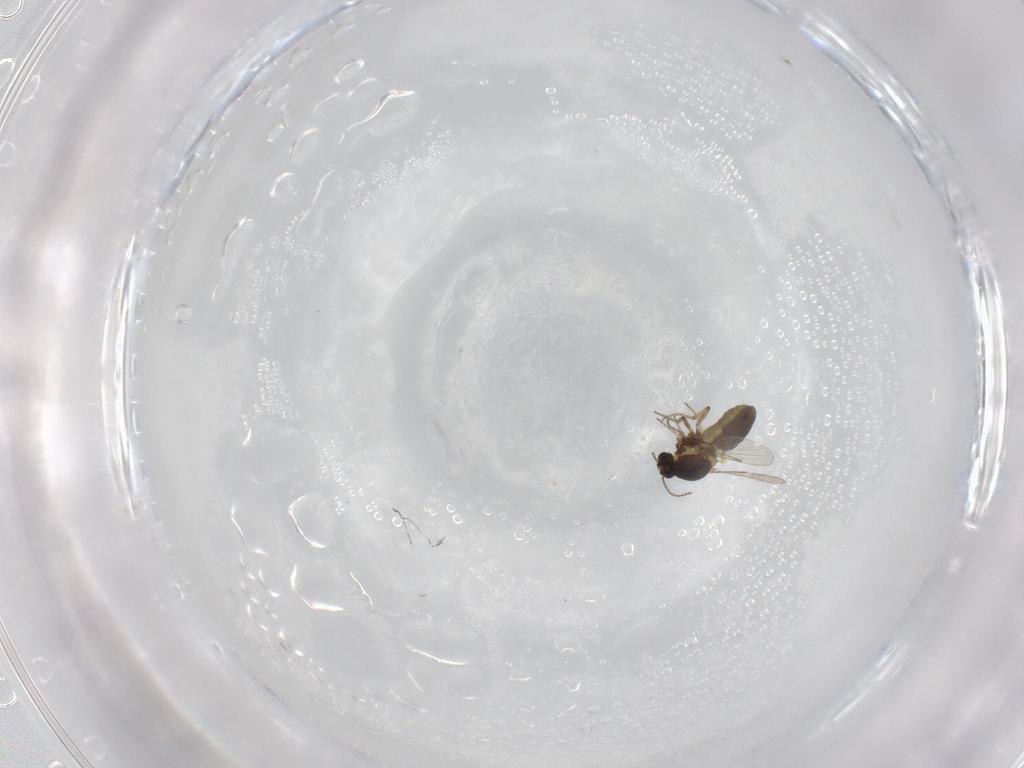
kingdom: Animalia
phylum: Arthropoda
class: Insecta
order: Diptera
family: Ceratopogonidae
